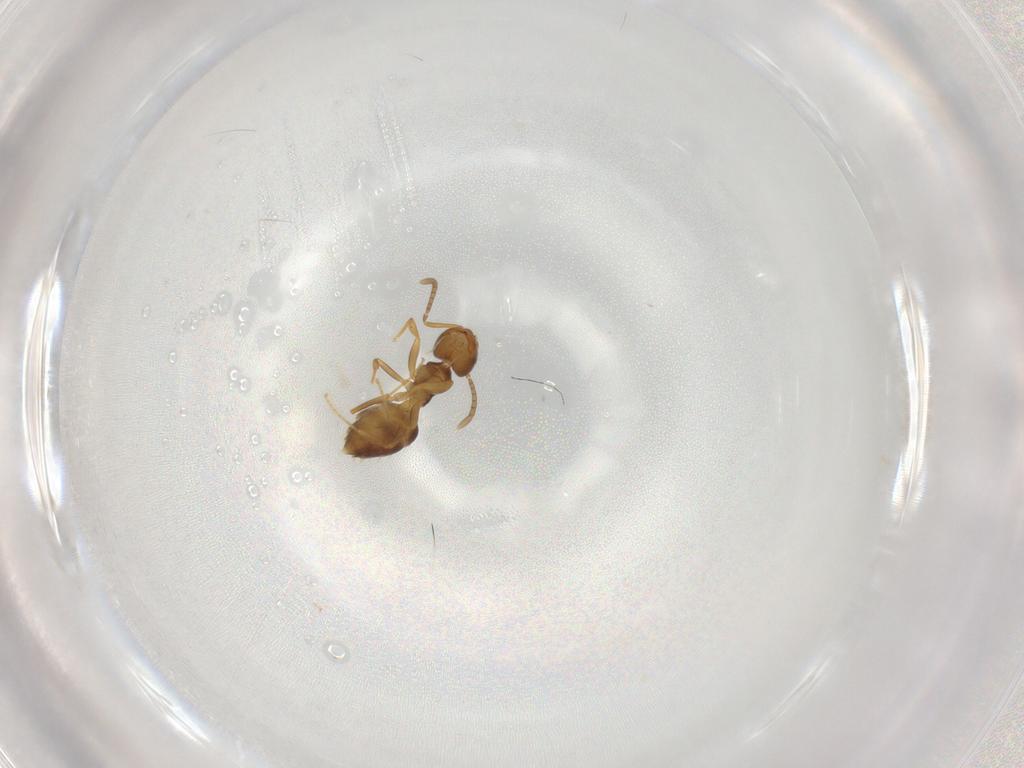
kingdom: Animalia
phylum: Arthropoda
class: Insecta
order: Hymenoptera
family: Formicidae
